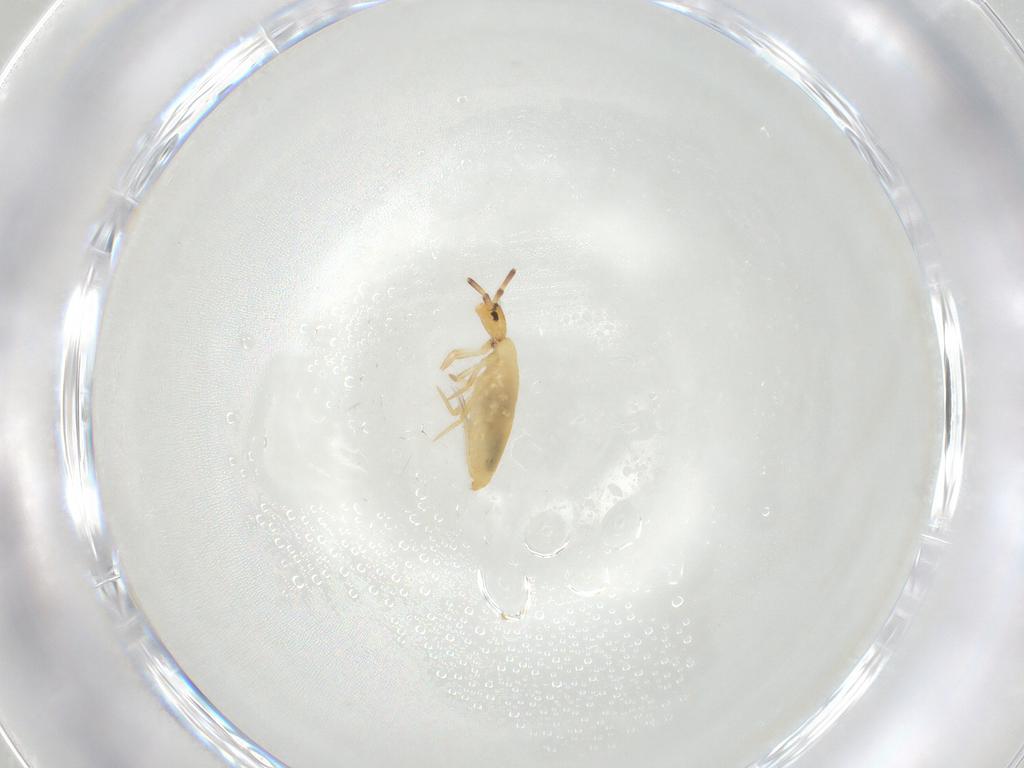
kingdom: Animalia
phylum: Arthropoda
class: Collembola
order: Entomobryomorpha
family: Entomobryidae
